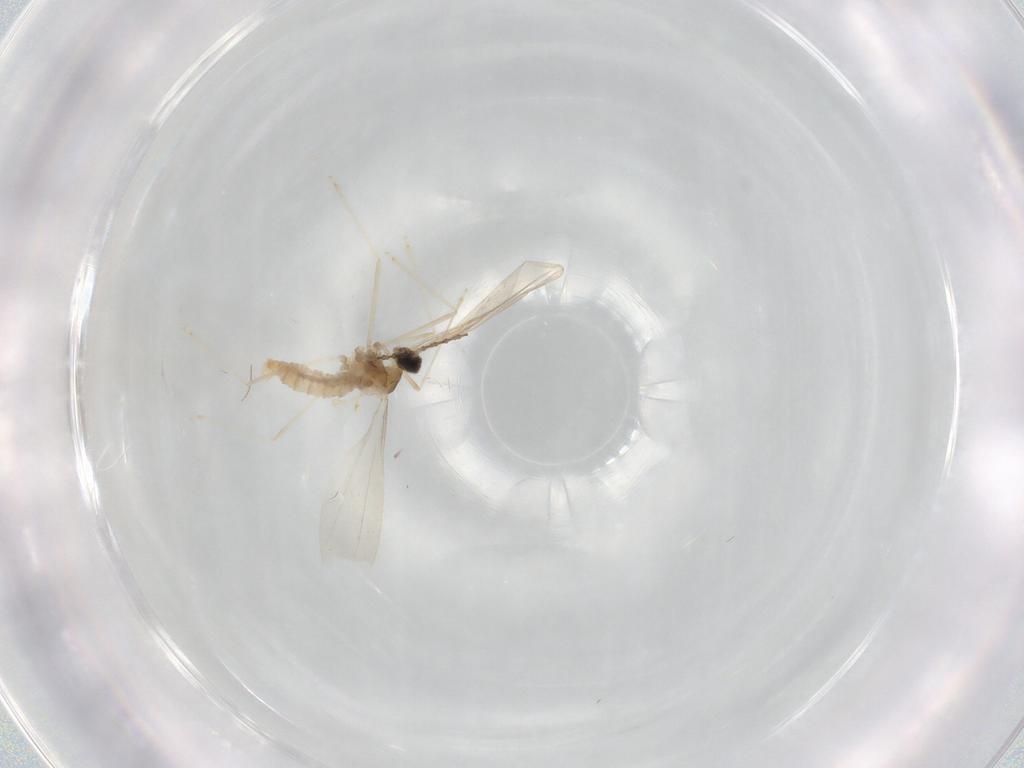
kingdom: Animalia
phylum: Arthropoda
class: Insecta
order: Diptera
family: Cecidomyiidae
